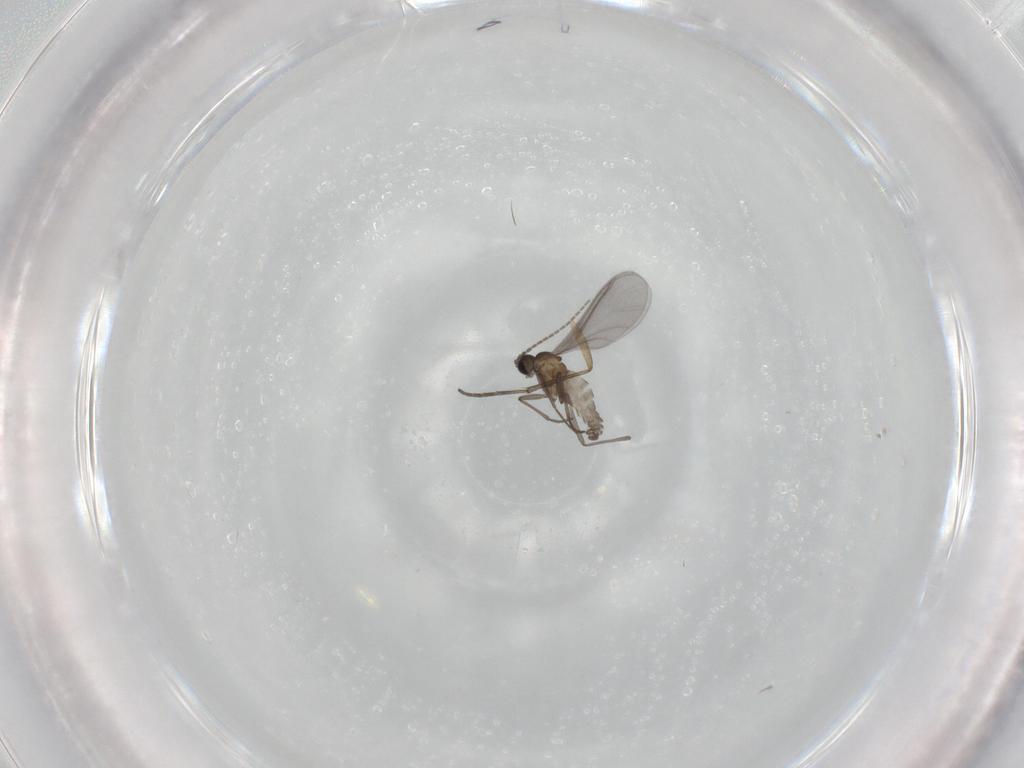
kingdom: Animalia
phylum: Arthropoda
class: Insecta
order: Diptera
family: Sciaridae
